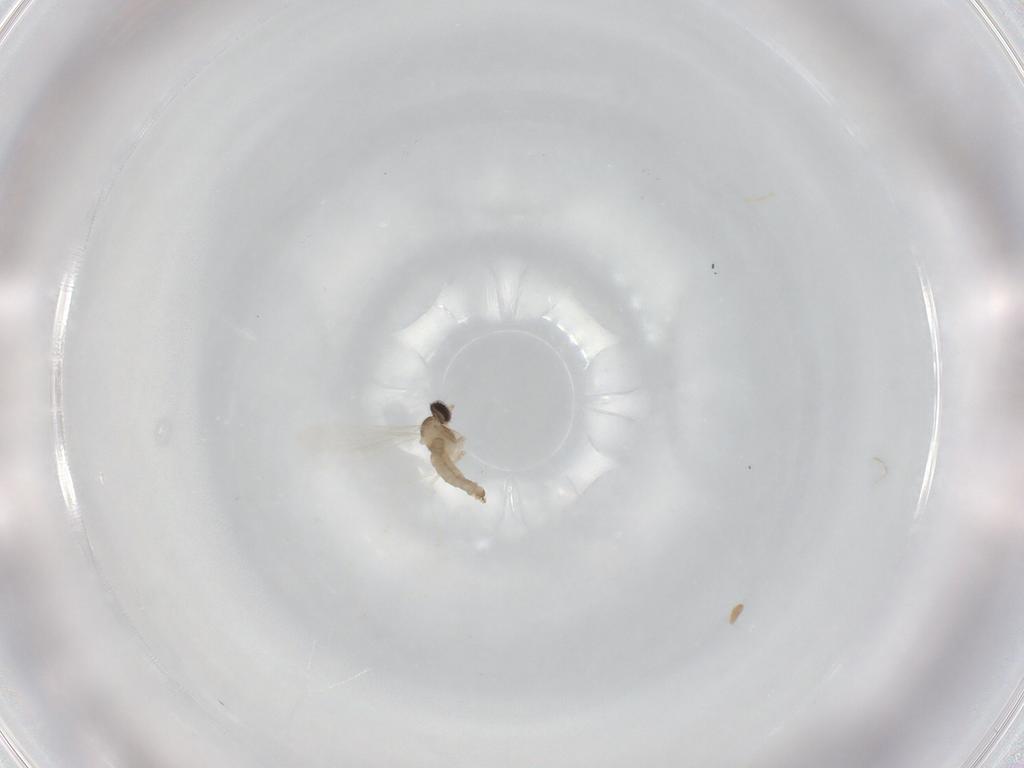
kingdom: Animalia
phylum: Arthropoda
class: Insecta
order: Diptera
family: Cecidomyiidae
